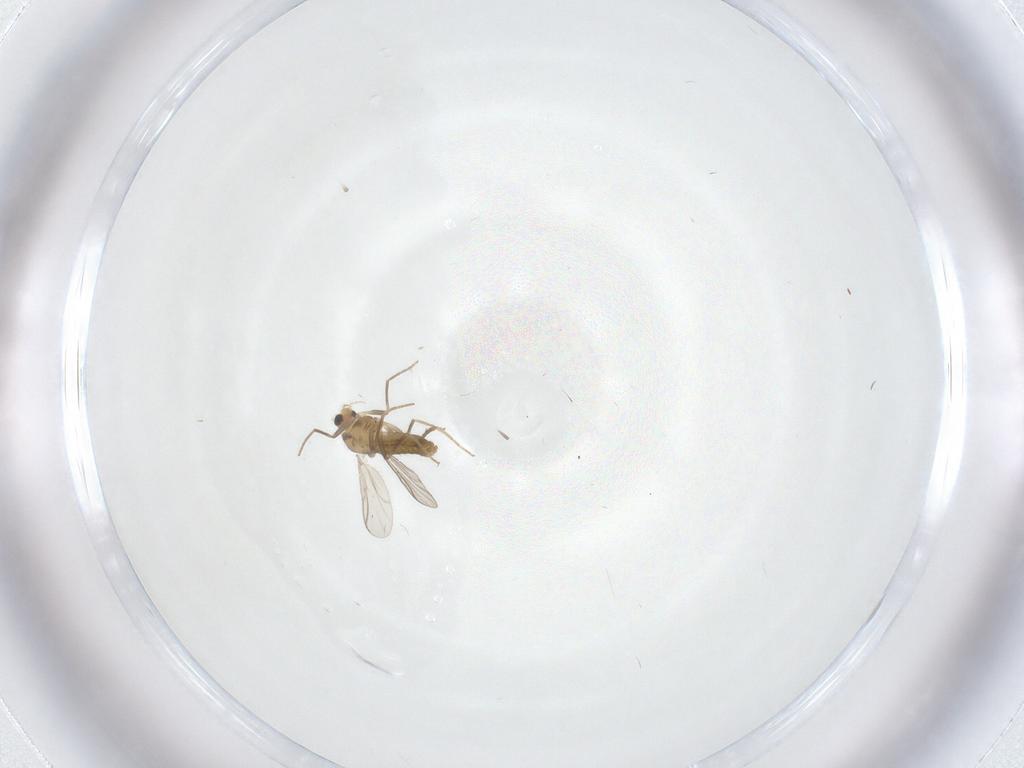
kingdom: Animalia
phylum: Arthropoda
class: Insecta
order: Diptera
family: Chironomidae
